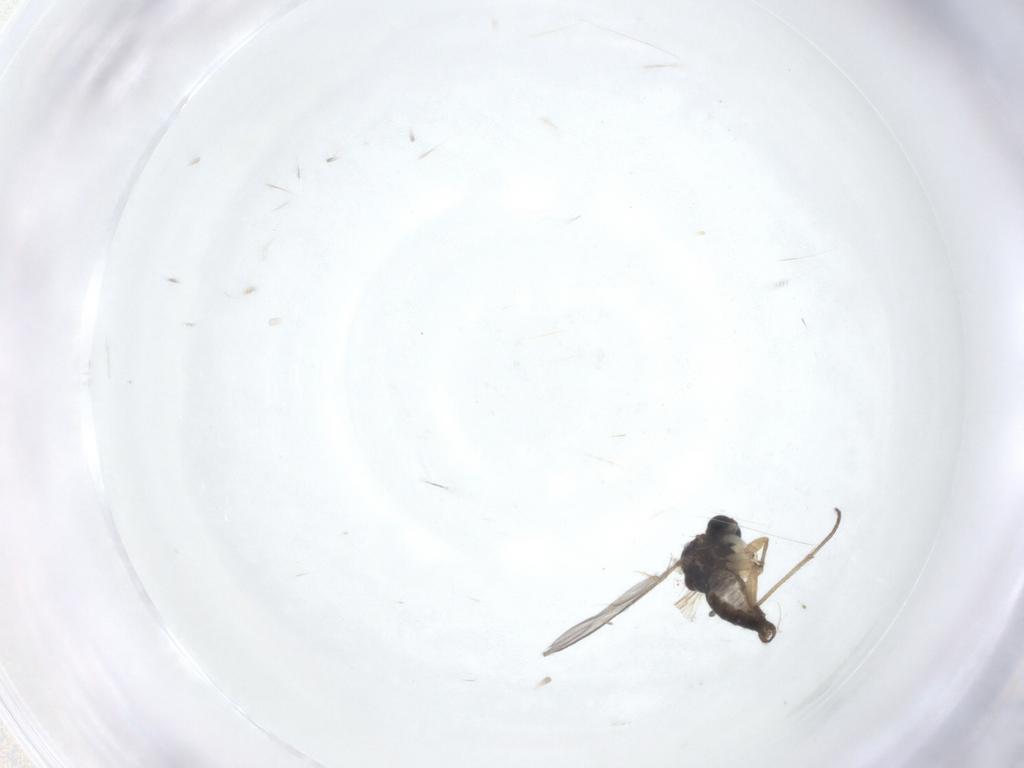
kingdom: Animalia
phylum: Arthropoda
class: Insecta
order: Diptera
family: Sciaridae
